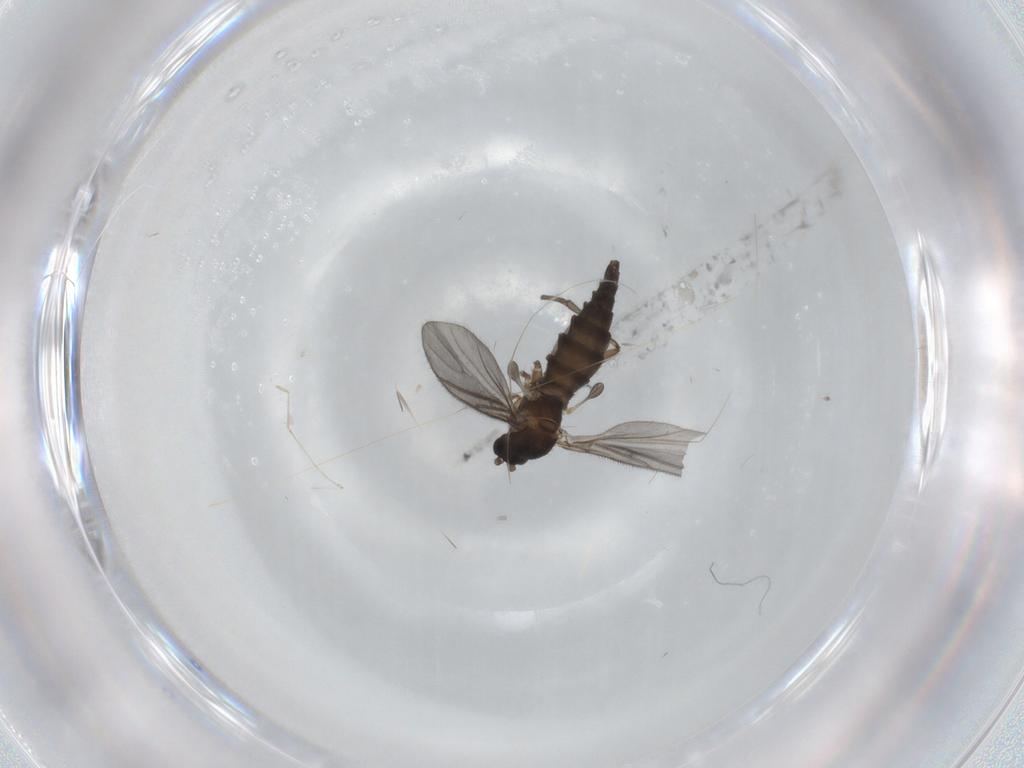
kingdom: Animalia
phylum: Arthropoda
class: Insecta
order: Diptera
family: Sciaridae
